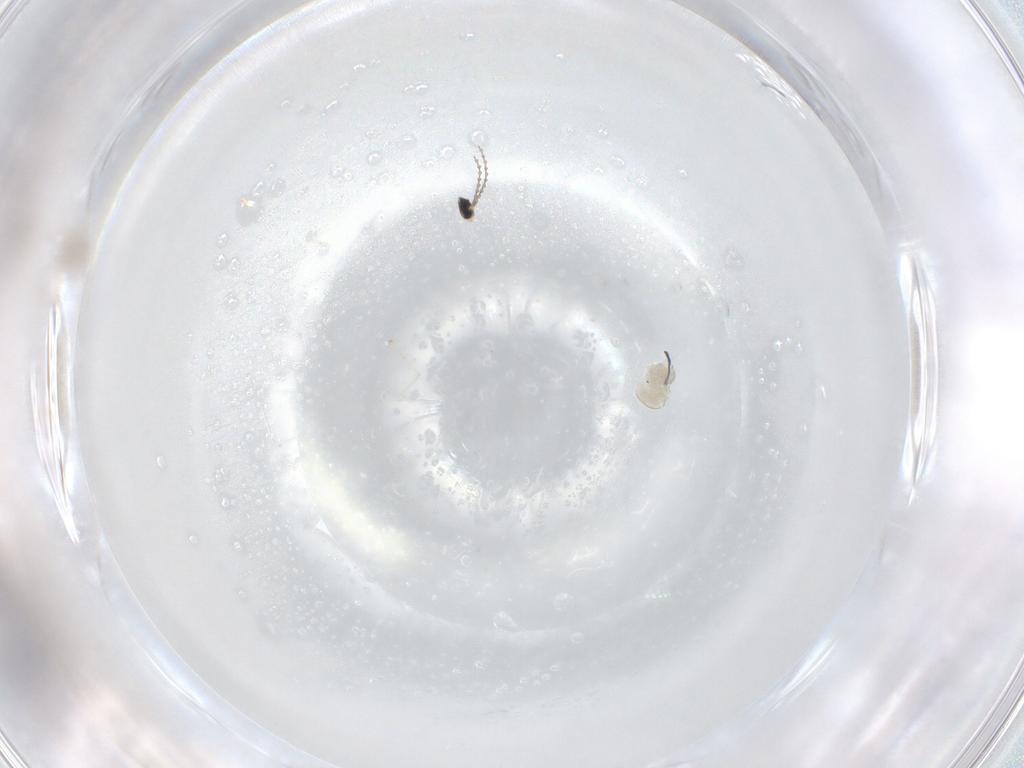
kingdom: Animalia
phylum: Arthropoda
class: Insecta
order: Diptera
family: Cecidomyiidae
